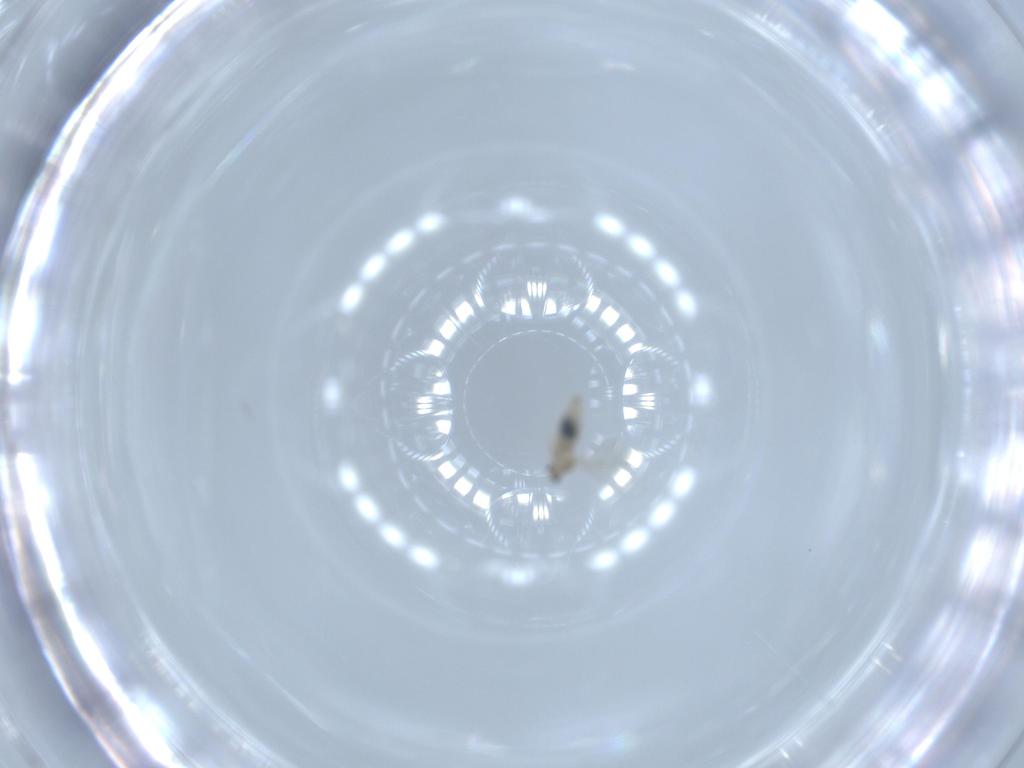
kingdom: Animalia
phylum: Arthropoda
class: Insecta
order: Diptera
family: Cecidomyiidae
